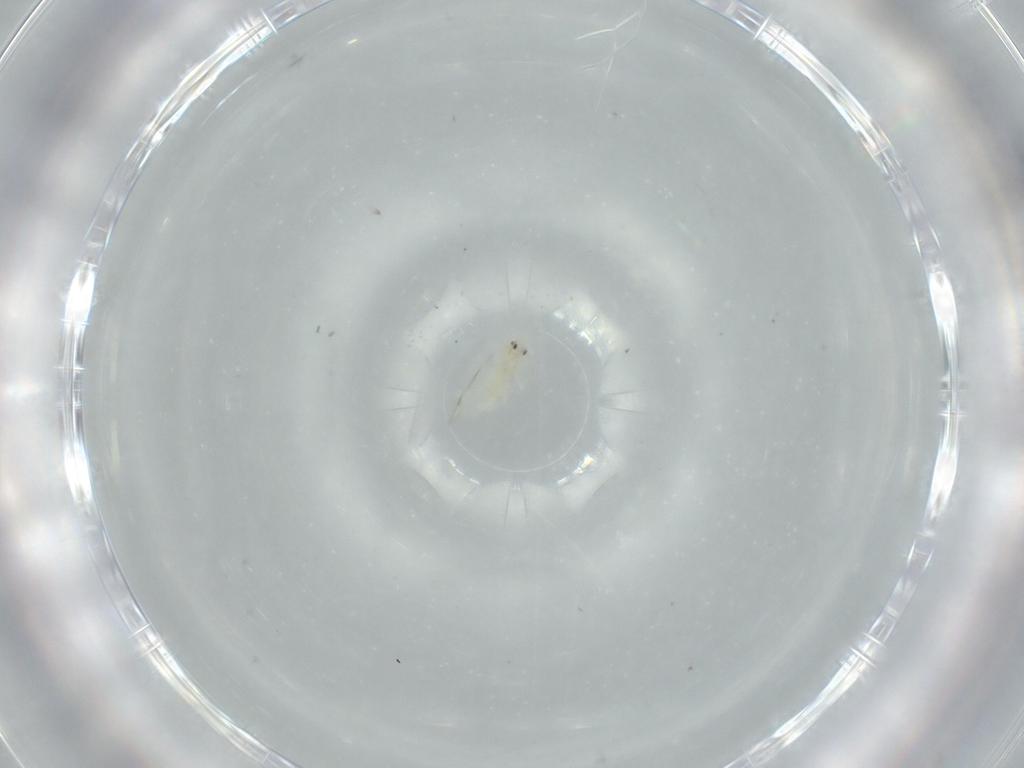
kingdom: Animalia
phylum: Arthropoda
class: Insecta
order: Hemiptera
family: Aleyrodidae
